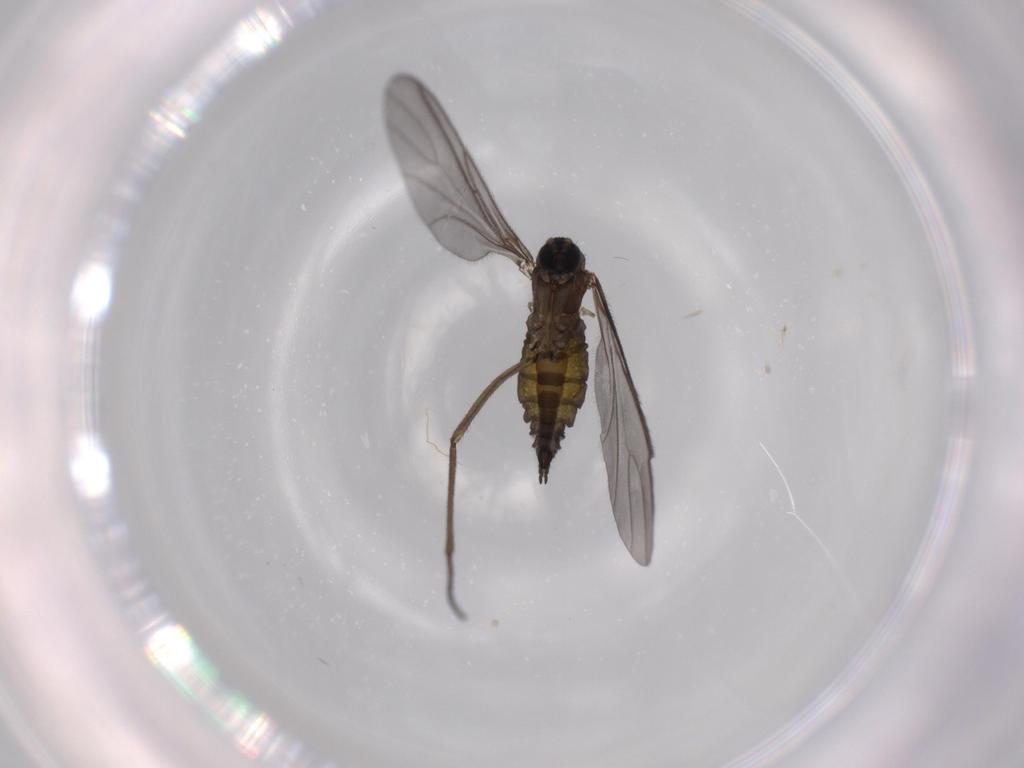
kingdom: Animalia
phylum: Arthropoda
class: Insecta
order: Diptera
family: Sciaridae
